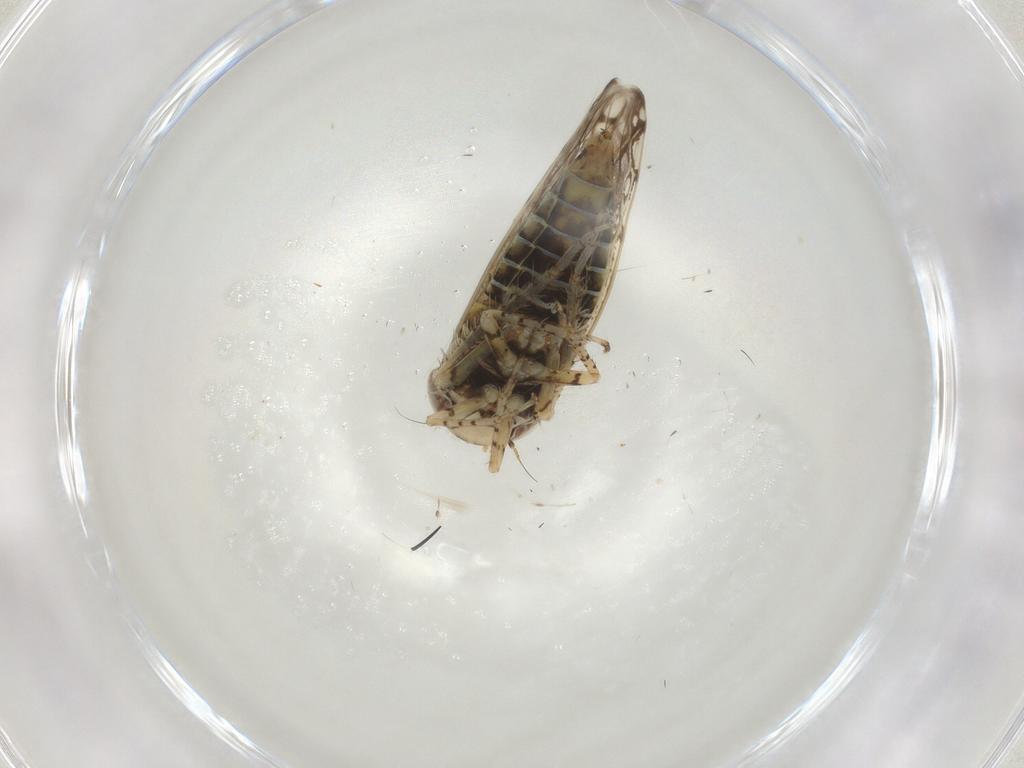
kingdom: Animalia
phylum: Arthropoda
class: Insecta
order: Hemiptera
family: Cicadellidae
